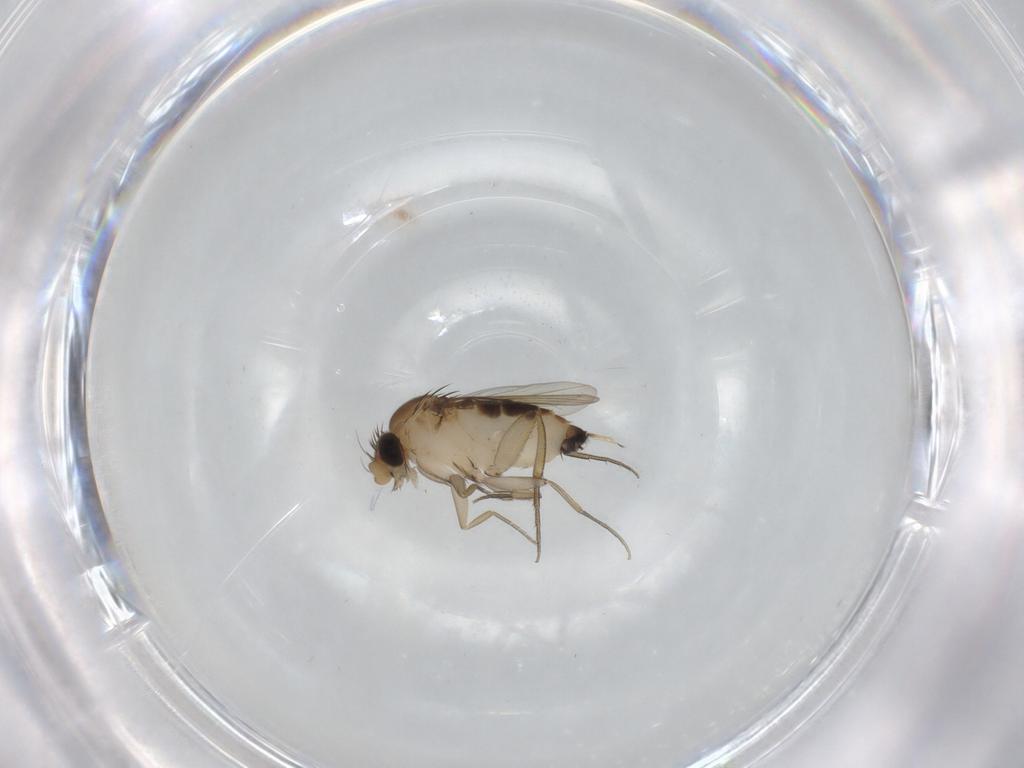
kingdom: Animalia
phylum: Arthropoda
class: Insecta
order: Diptera
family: Phoridae
